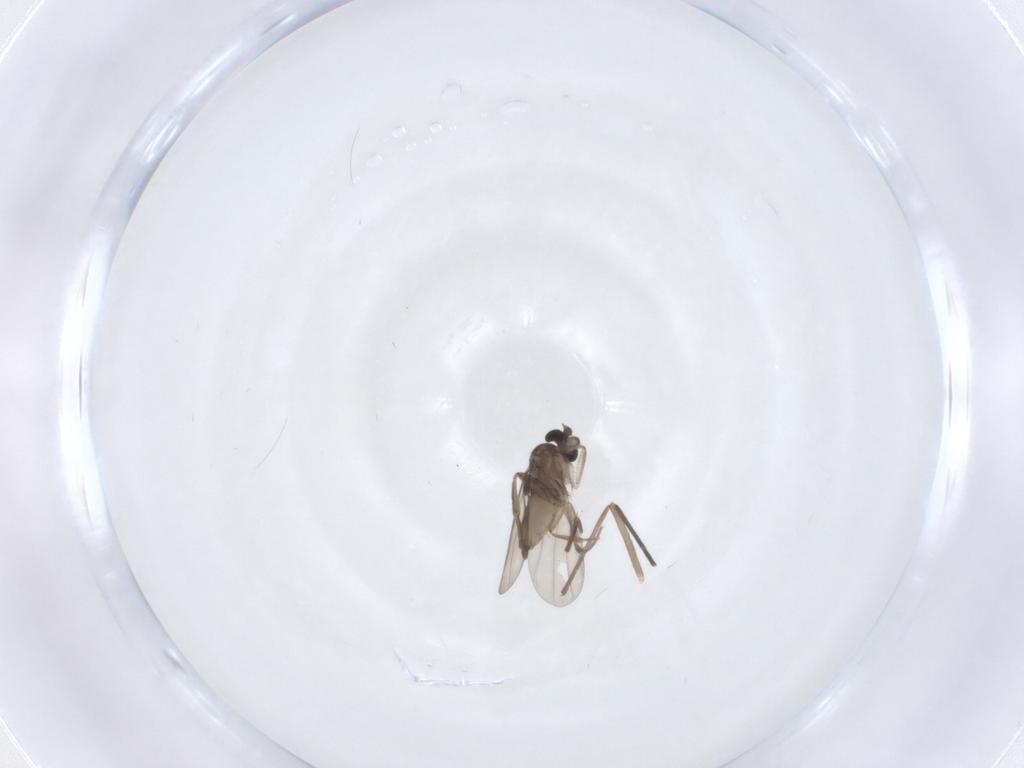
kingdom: Animalia
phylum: Arthropoda
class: Insecta
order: Diptera
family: Phoridae
